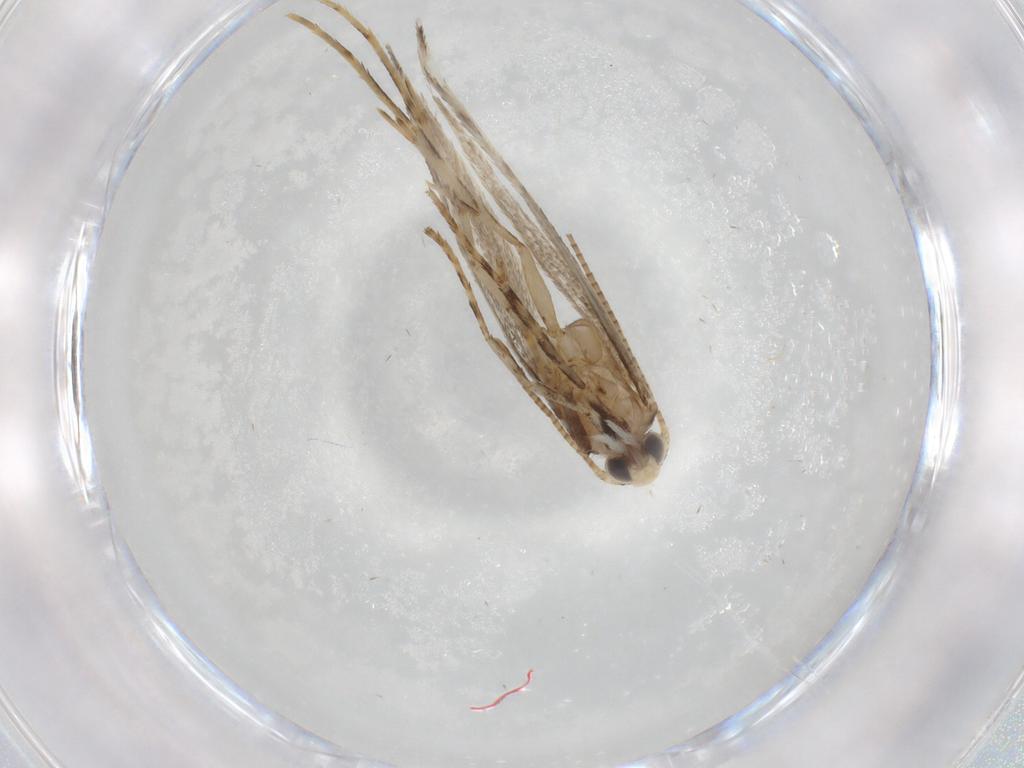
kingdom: Animalia
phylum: Arthropoda
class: Insecta
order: Lepidoptera
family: Gracillariidae
